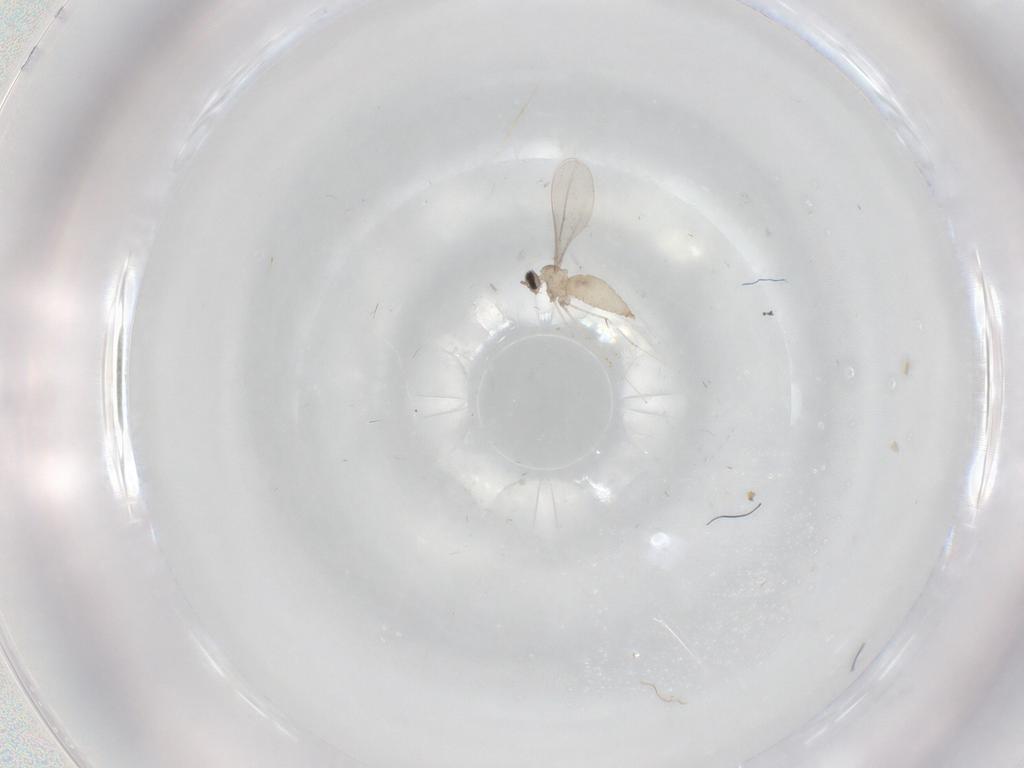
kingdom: Animalia
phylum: Arthropoda
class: Insecta
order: Diptera
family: Cecidomyiidae
